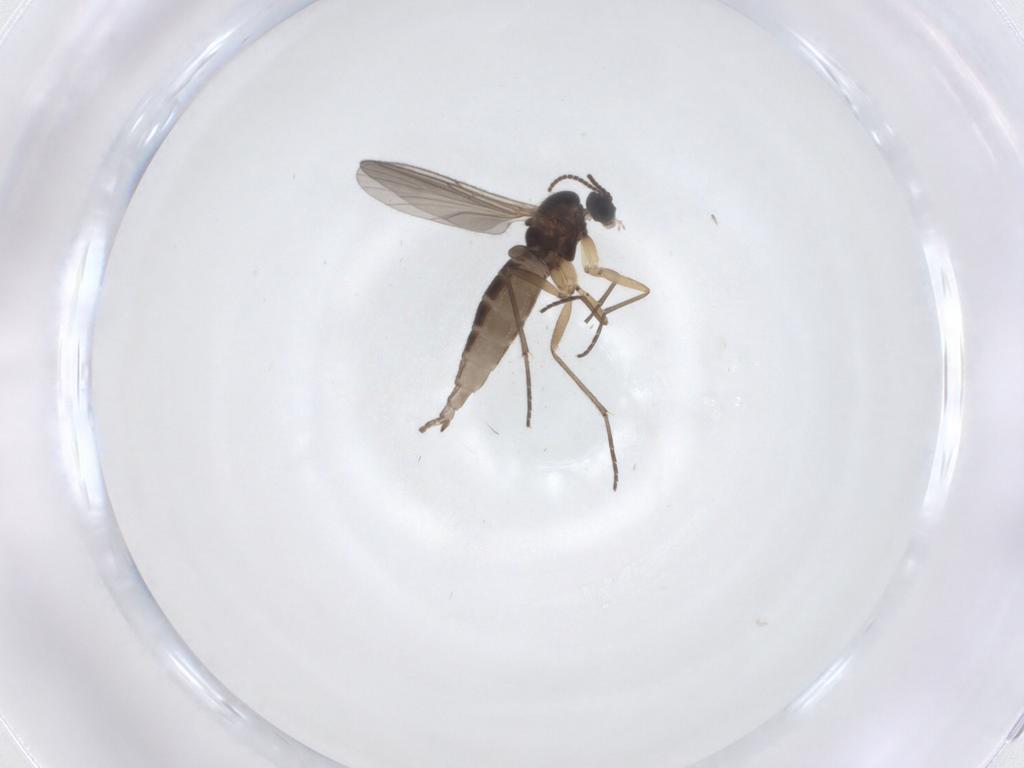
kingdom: Animalia
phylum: Arthropoda
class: Insecta
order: Diptera
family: Sciaridae
